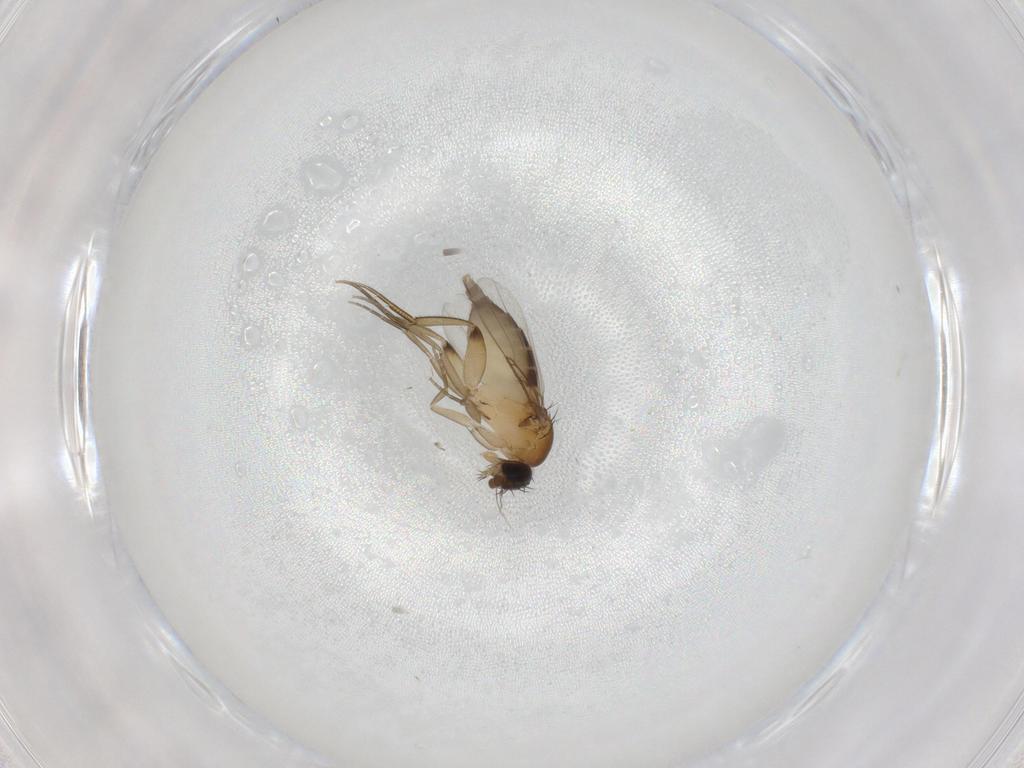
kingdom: Animalia
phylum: Arthropoda
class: Insecta
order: Diptera
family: Phoridae
